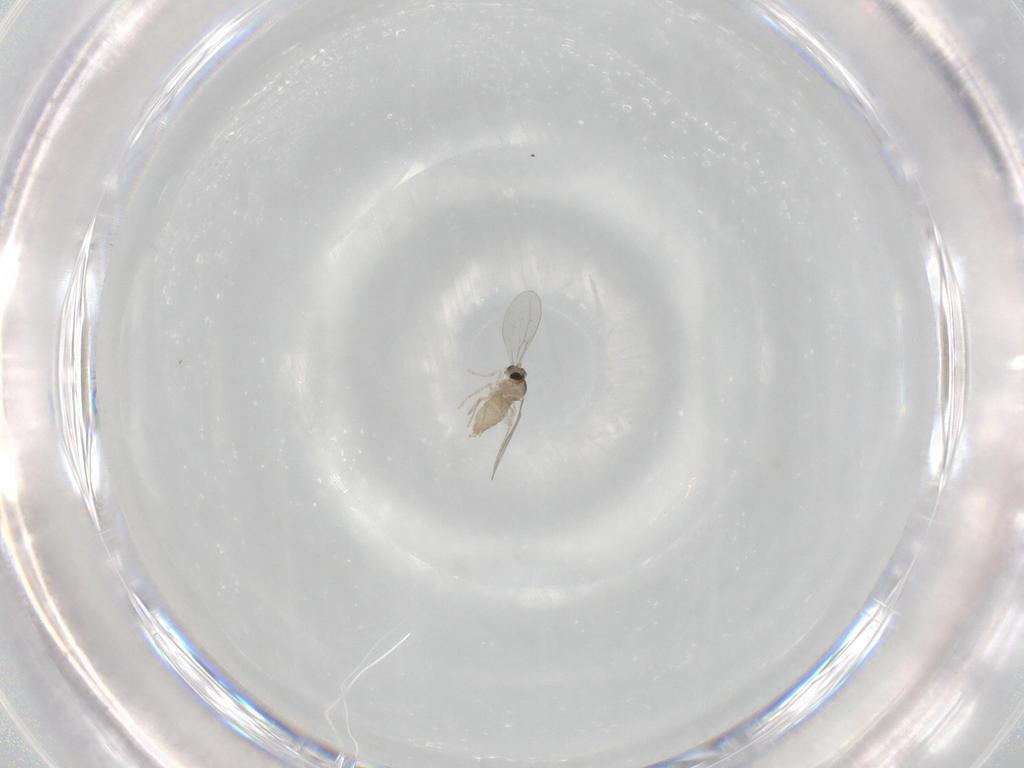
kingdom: Animalia
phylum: Arthropoda
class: Insecta
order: Diptera
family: Cecidomyiidae
